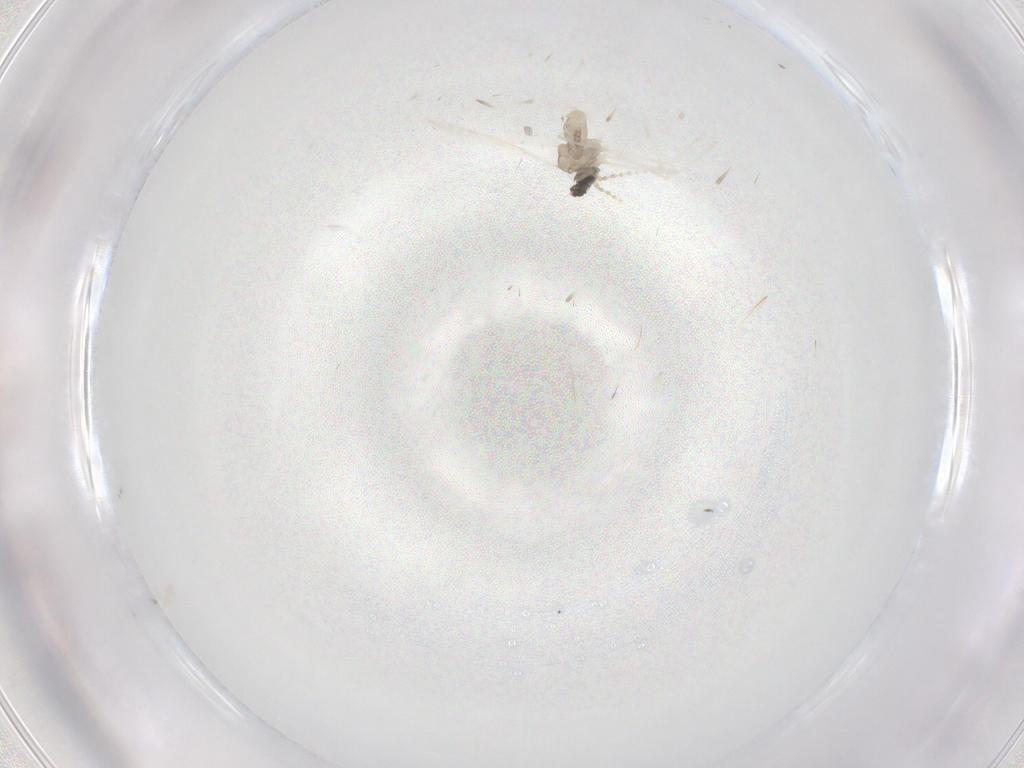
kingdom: Animalia
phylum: Arthropoda
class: Insecta
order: Diptera
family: Cecidomyiidae
